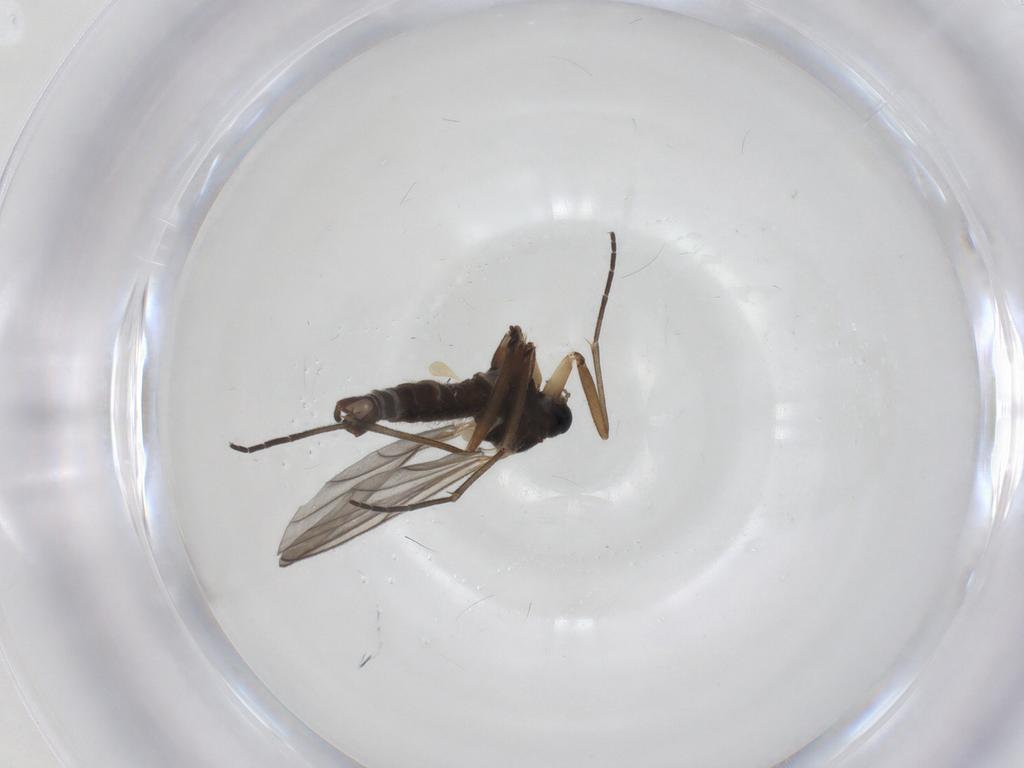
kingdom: Animalia
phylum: Arthropoda
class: Insecta
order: Diptera
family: Sciaridae
